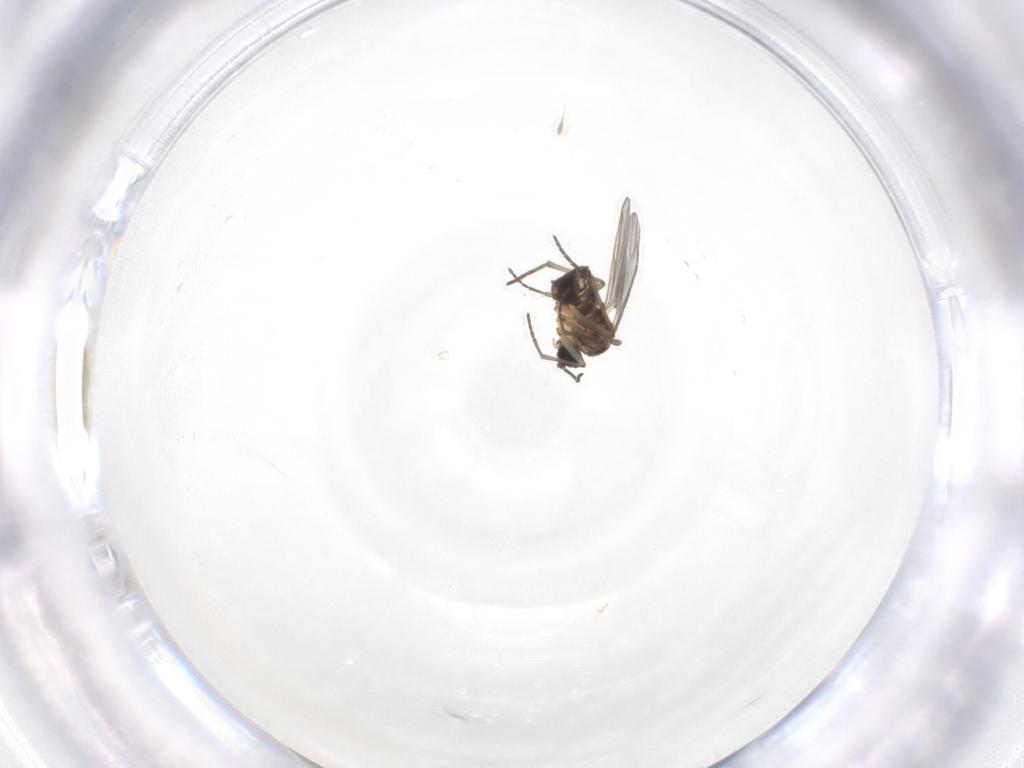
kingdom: Animalia
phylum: Arthropoda
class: Insecta
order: Diptera
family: Sciaridae
